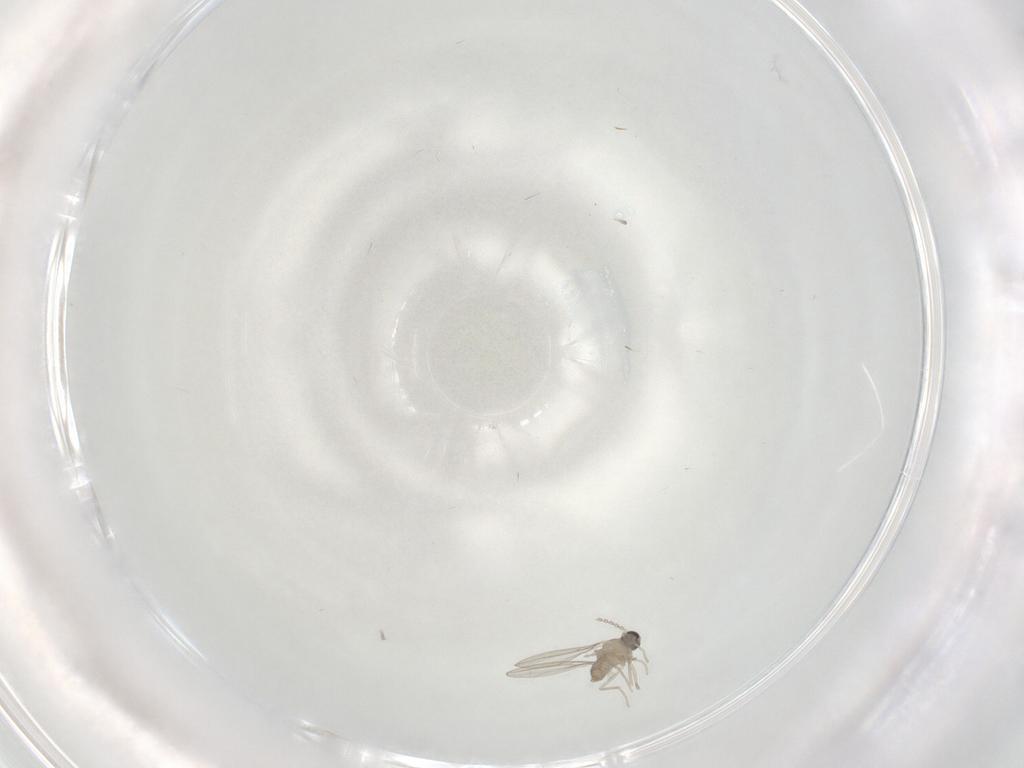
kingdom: Animalia
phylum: Arthropoda
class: Insecta
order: Diptera
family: Cecidomyiidae
